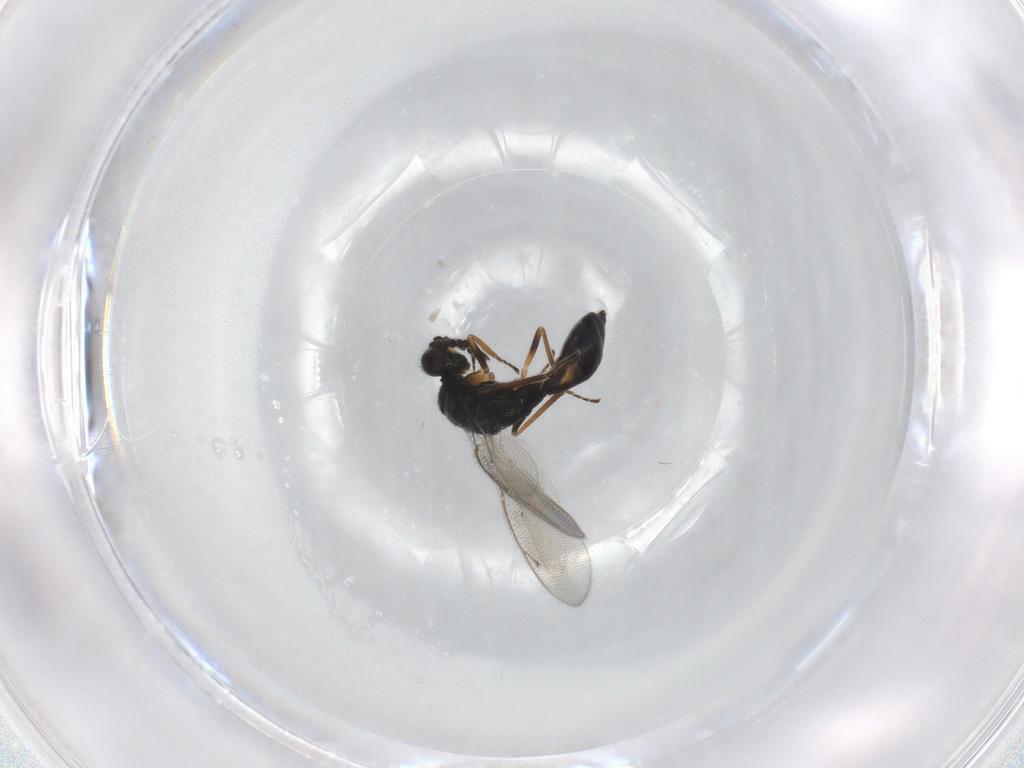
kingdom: Animalia
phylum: Arthropoda
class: Insecta
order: Hymenoptera
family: Eulophidae
